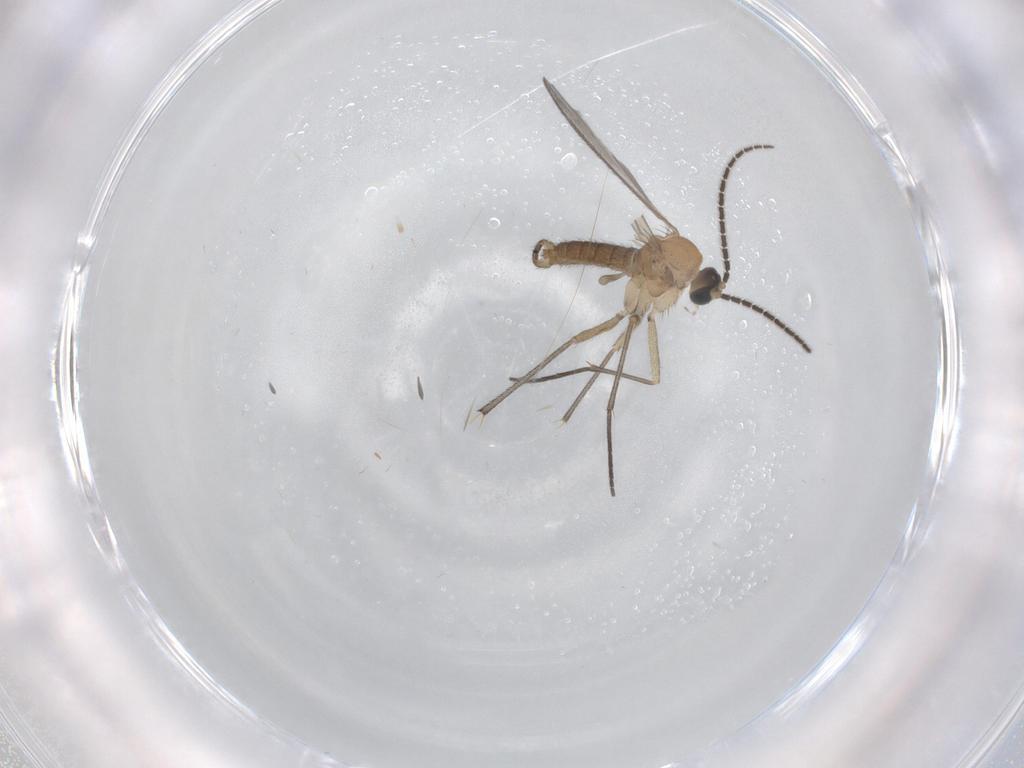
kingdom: Animalia
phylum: Arthropoda
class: Insecta
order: Diptera
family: Sciaridae
